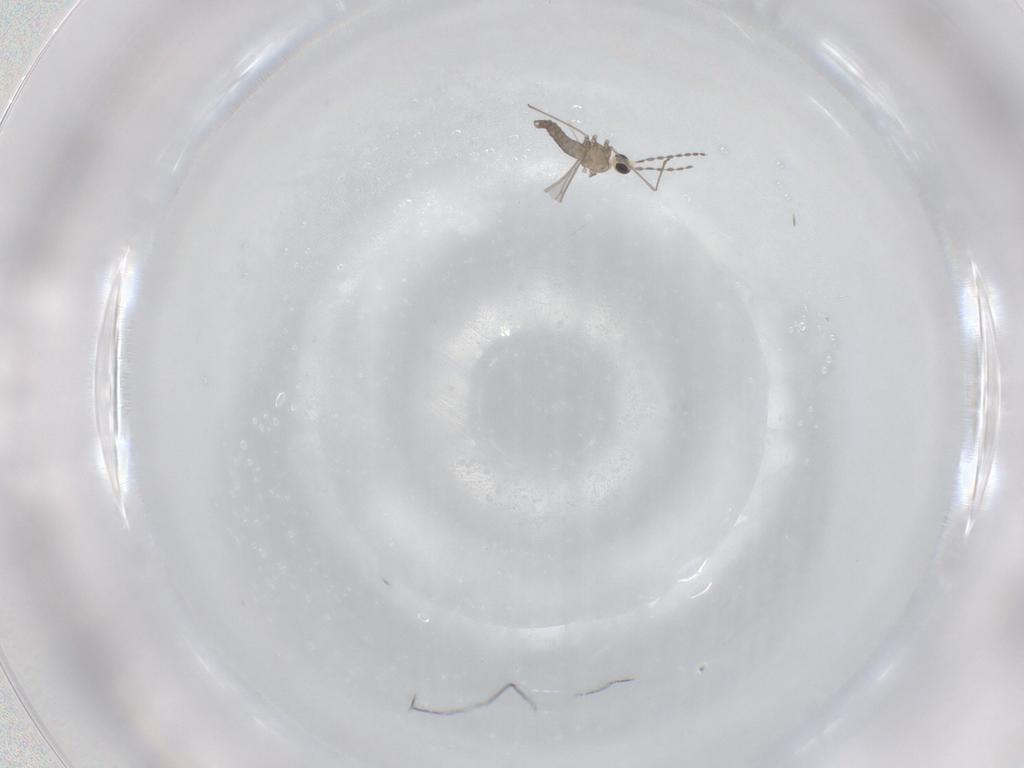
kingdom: Animalia
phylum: Arthropoda
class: Insecta
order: Diptera
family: Cecidomyiidae
